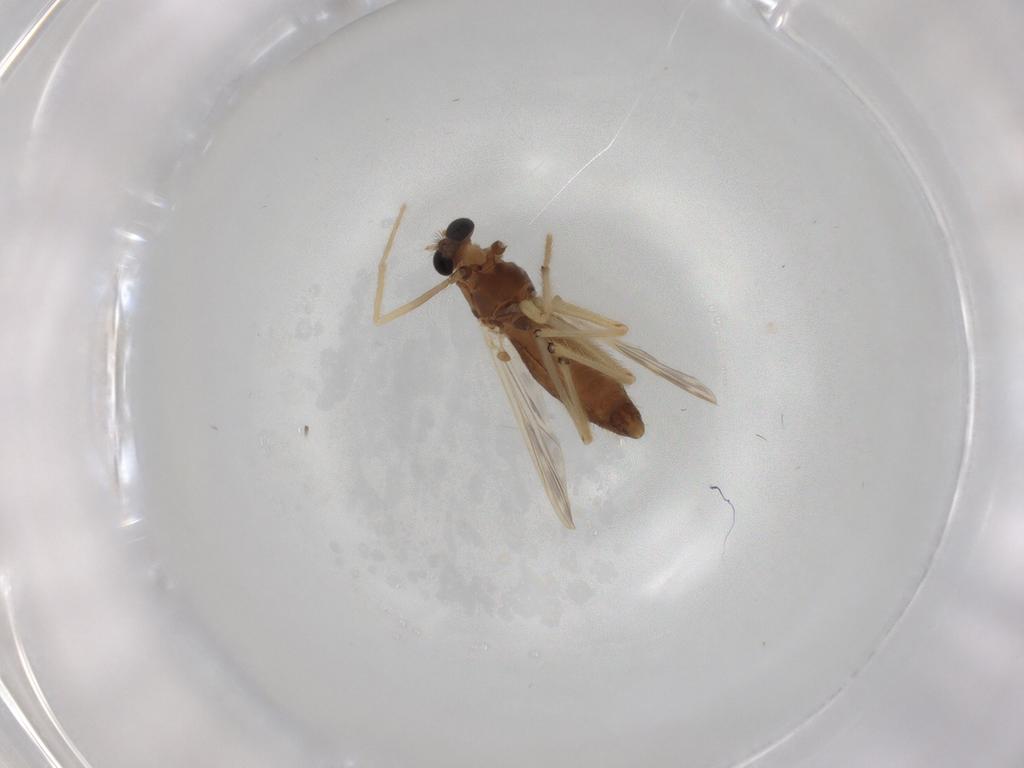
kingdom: Animalia
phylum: Arthropoda
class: Insecta
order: Diptera
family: Chironomidae
